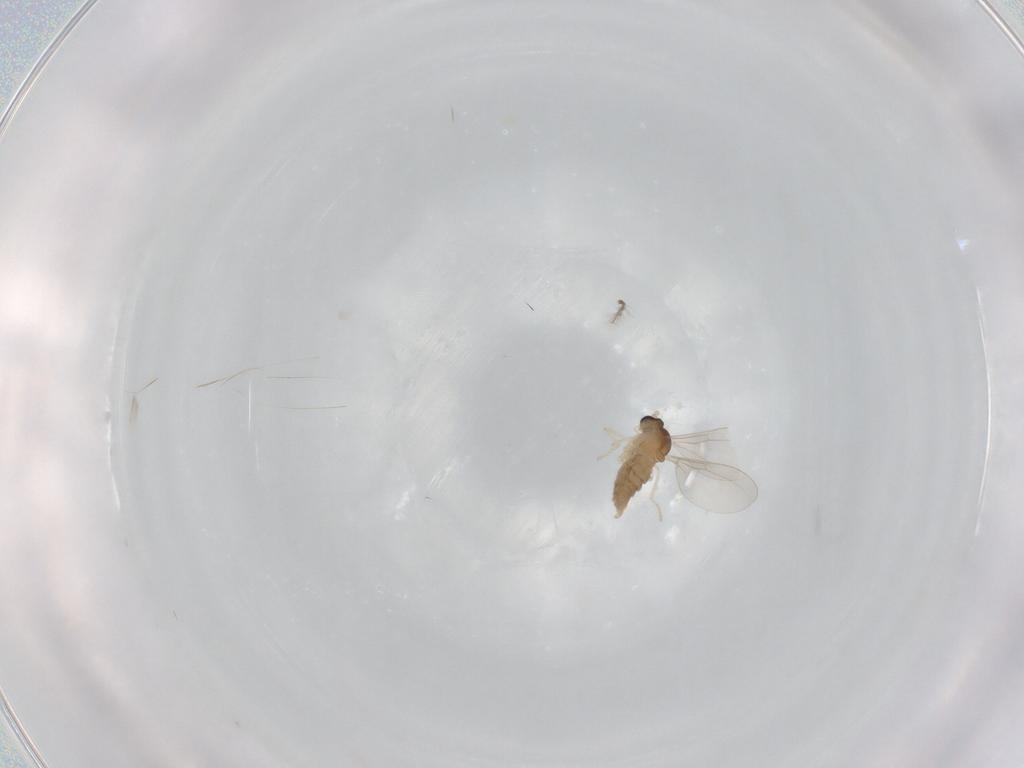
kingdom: Animalia
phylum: Arthropoda
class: Insecta
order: Diptera
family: Cecidomyiidae
